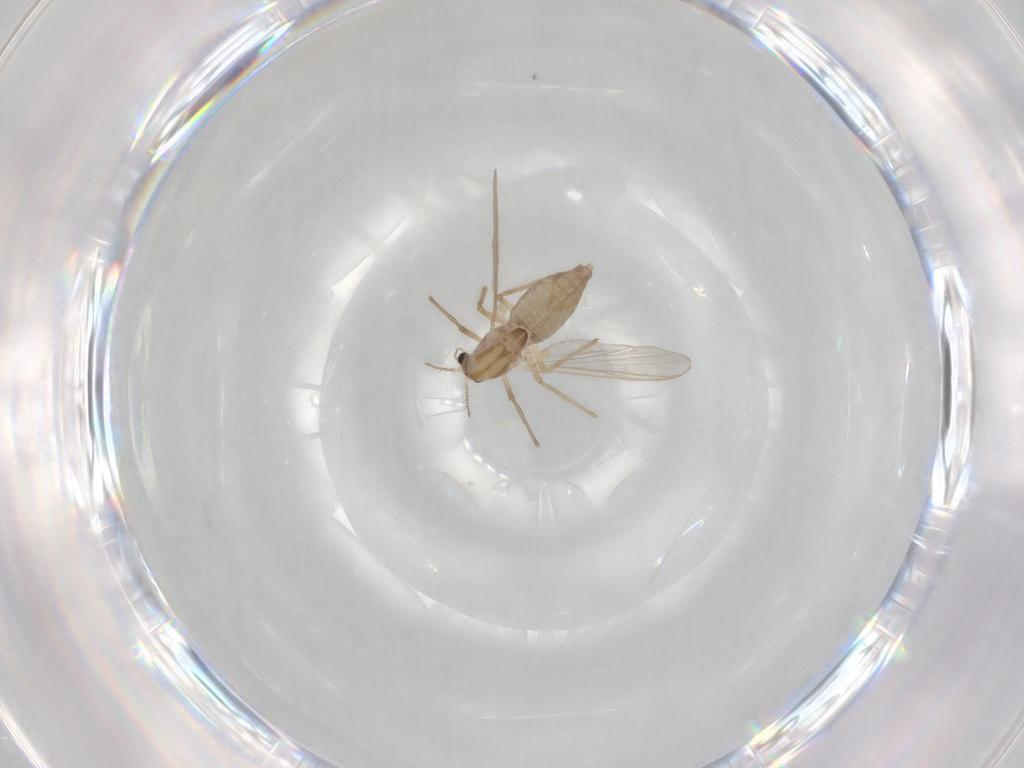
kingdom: Animalia
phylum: Arthropoda
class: Insecta
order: Diptera
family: Chironomidae
